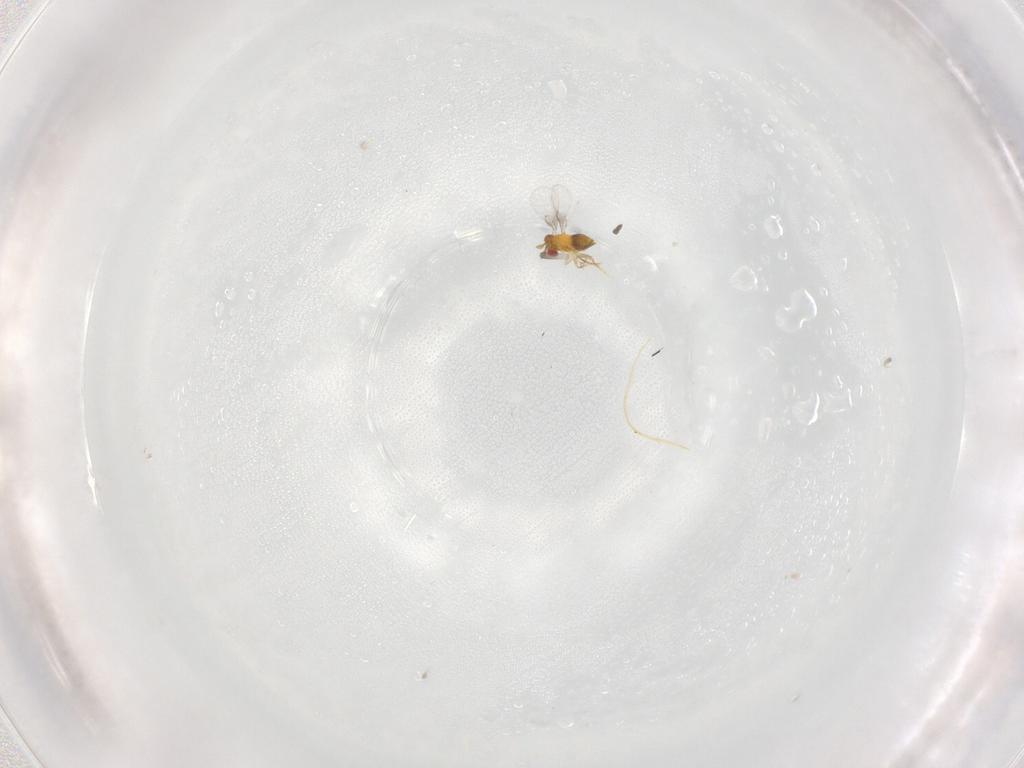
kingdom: Animalia
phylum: Arthropoda
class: Insecta
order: Hymenoptera
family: Trichogrammatidae
